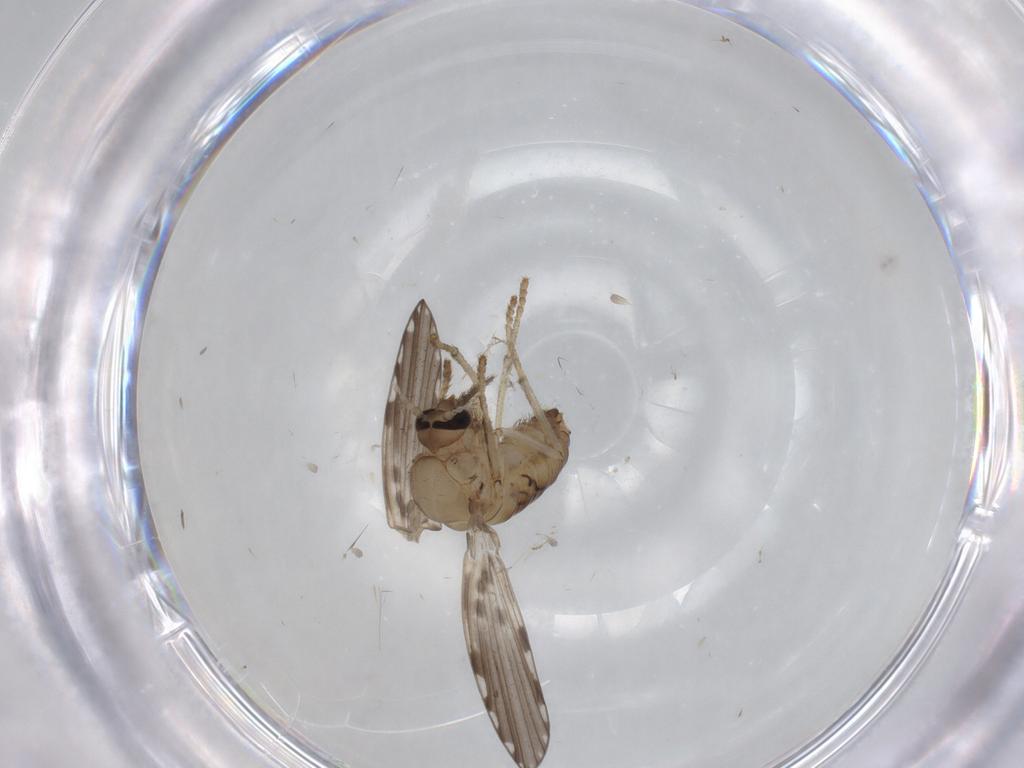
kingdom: Animalia
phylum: Arthropoda
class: Insecta
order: Diptera
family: Psychodidae
